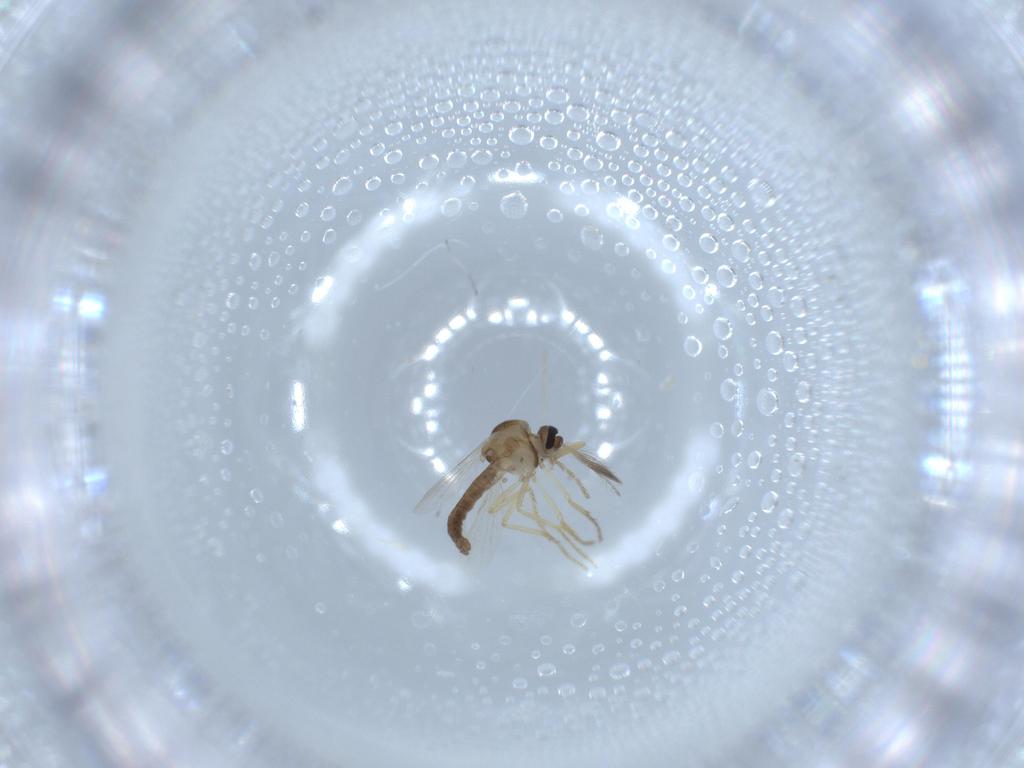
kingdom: Animalia
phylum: Arthropoda
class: Insecta
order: Diptera
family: Ceratopogonidae
